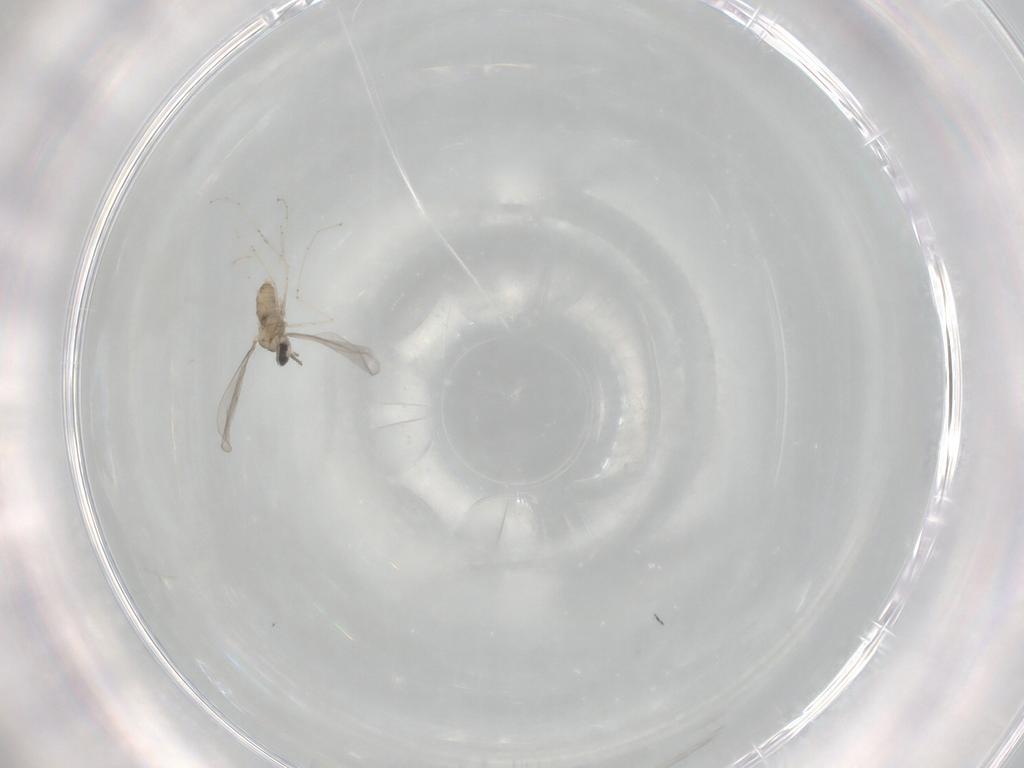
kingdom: Animalia
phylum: Arthropoda
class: Insecta
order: Diptera
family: Cecidomyiidae
